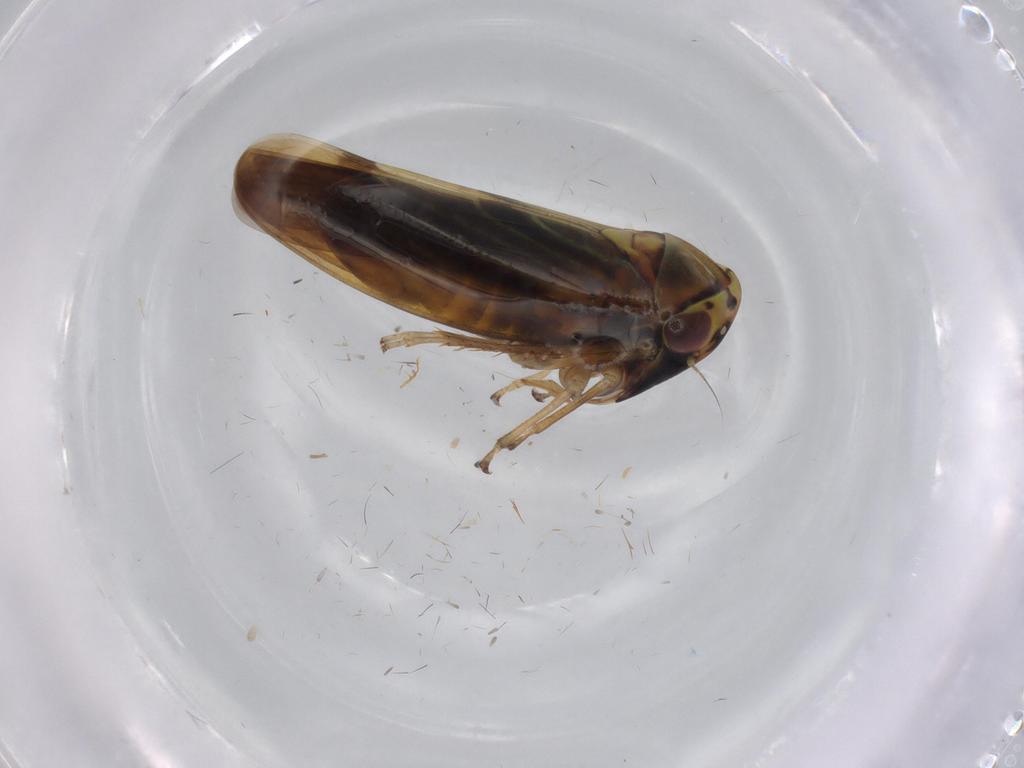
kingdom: Animalia
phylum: Arthropoda
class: Insecta
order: Hemiptera
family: Cicadellidae
